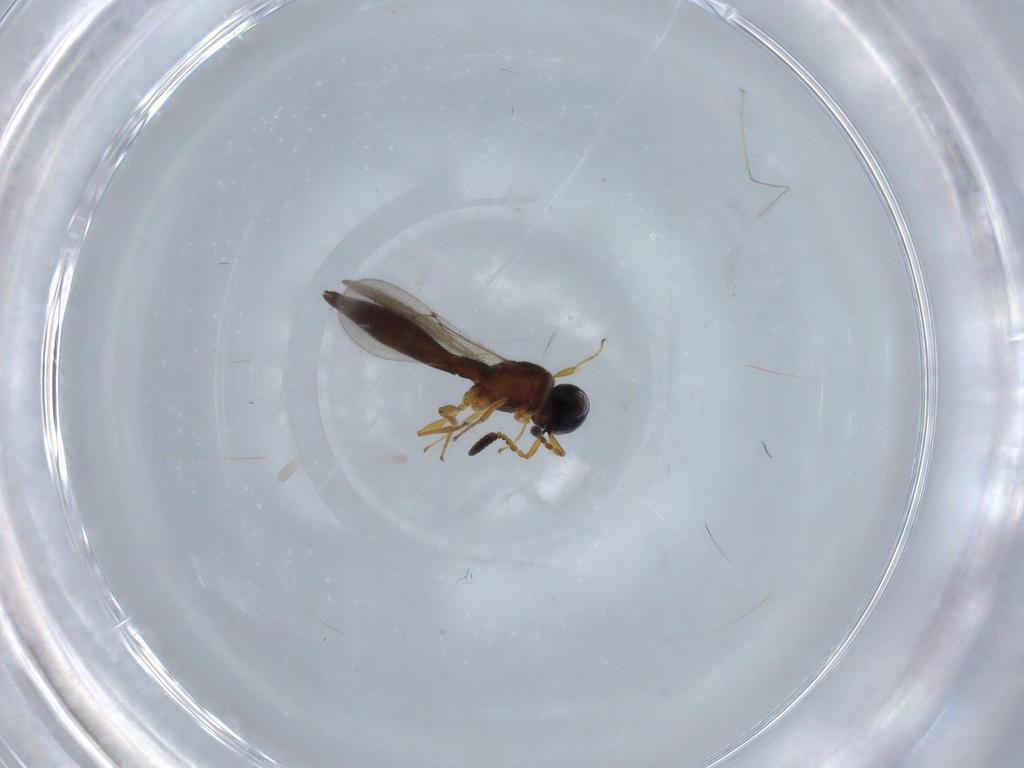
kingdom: Animalia
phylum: Arthropoda
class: Insecta
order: Hymenoptera
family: Scelionidae
